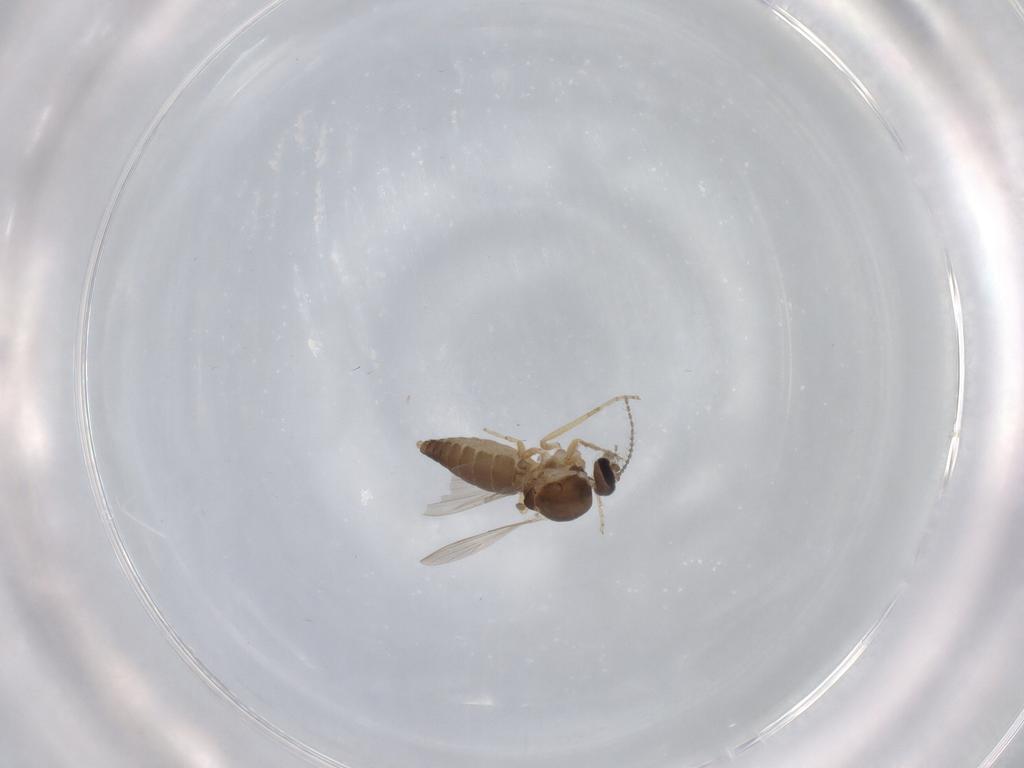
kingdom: Animalia
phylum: Arthropoda
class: Insecta
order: Diptera
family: Ceratopogonidae
